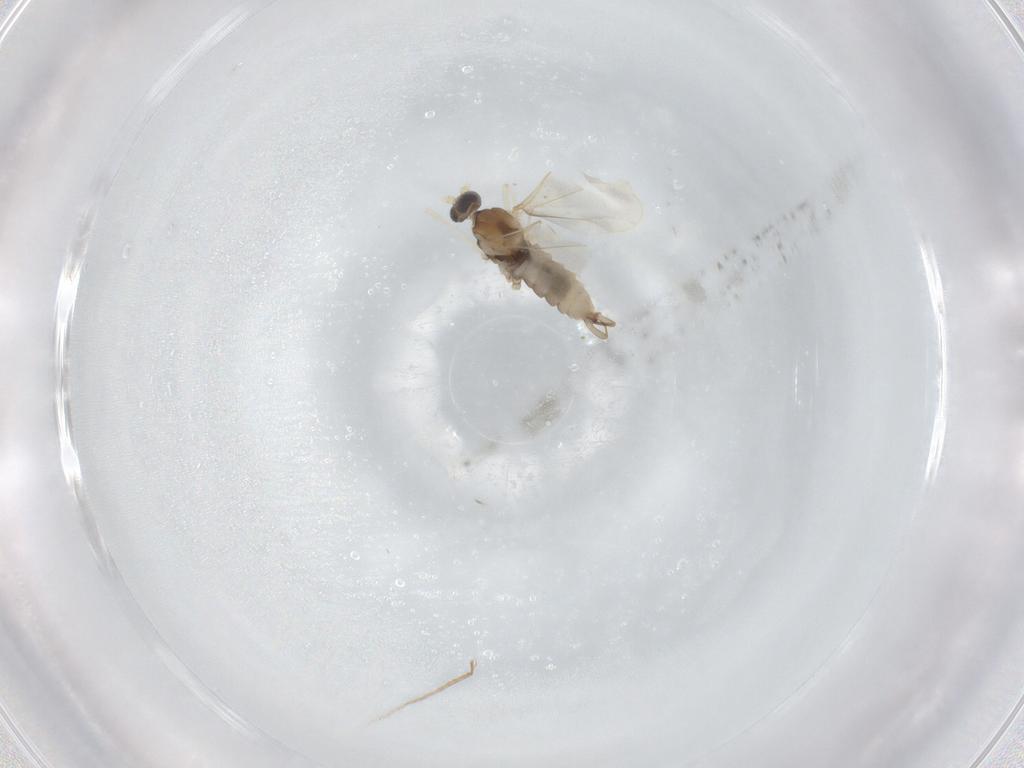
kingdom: Animalia
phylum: Arthropoda
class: Insecta
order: Diptera
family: Cecidomyiidae
